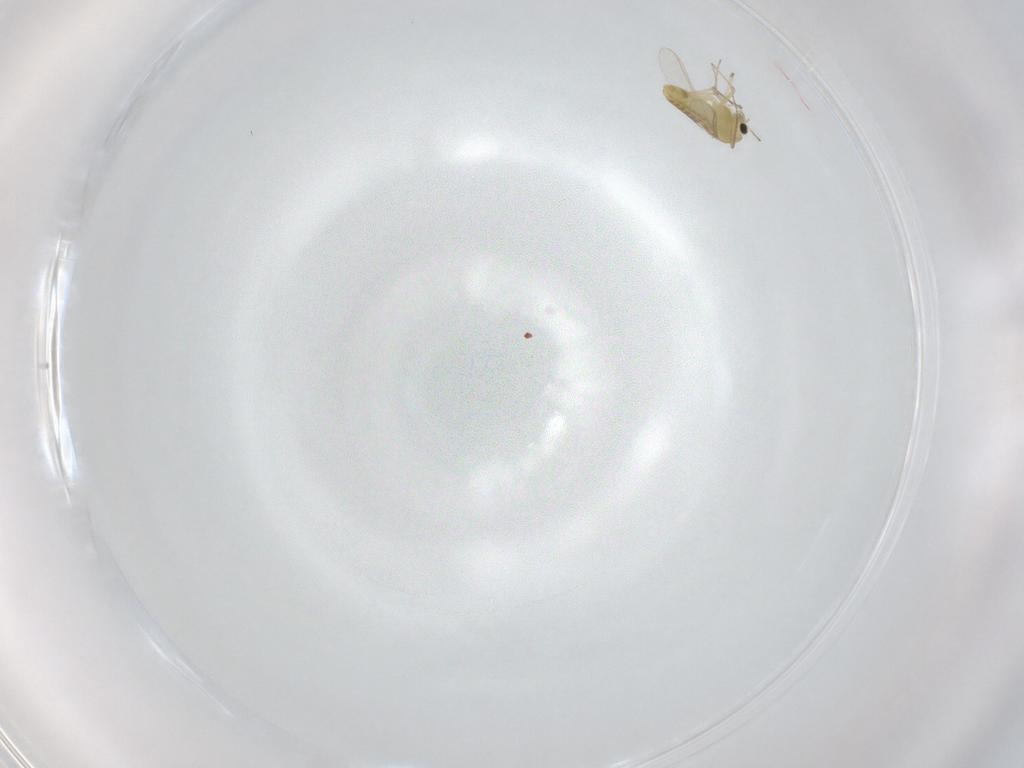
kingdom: Animalia
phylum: Arthropoda
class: Insecta
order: Diptera
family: Chironomidae
